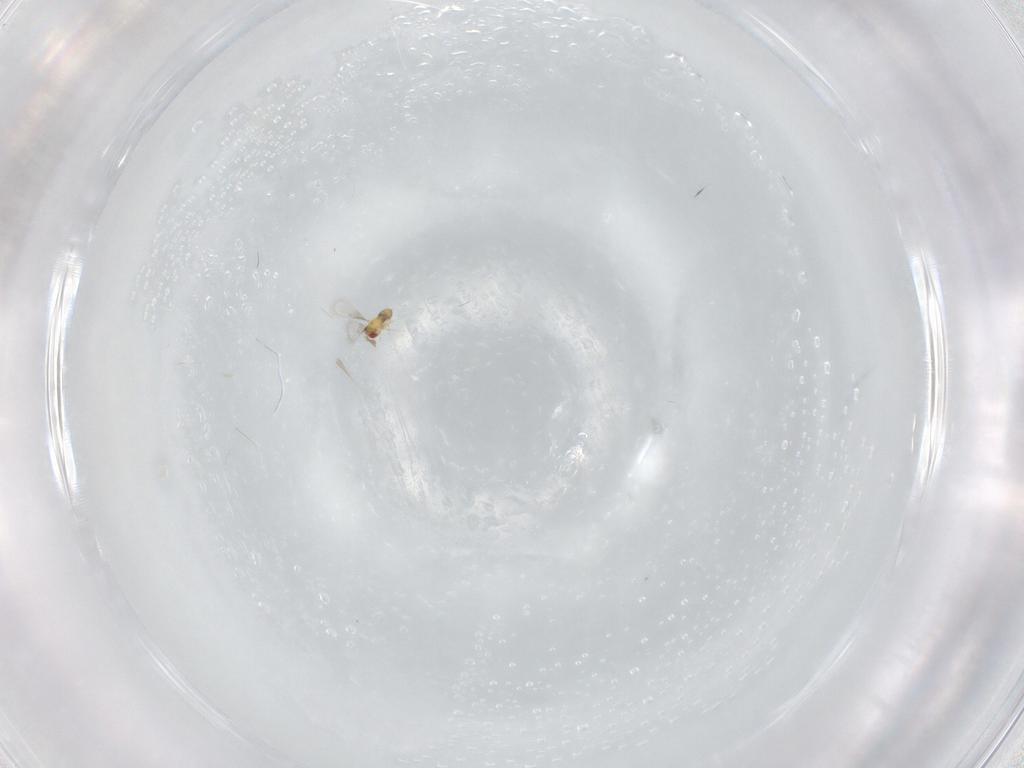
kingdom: Animalia
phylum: Arthropoda
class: Insecta
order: Hymenoptera
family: Trichogrammatidae
